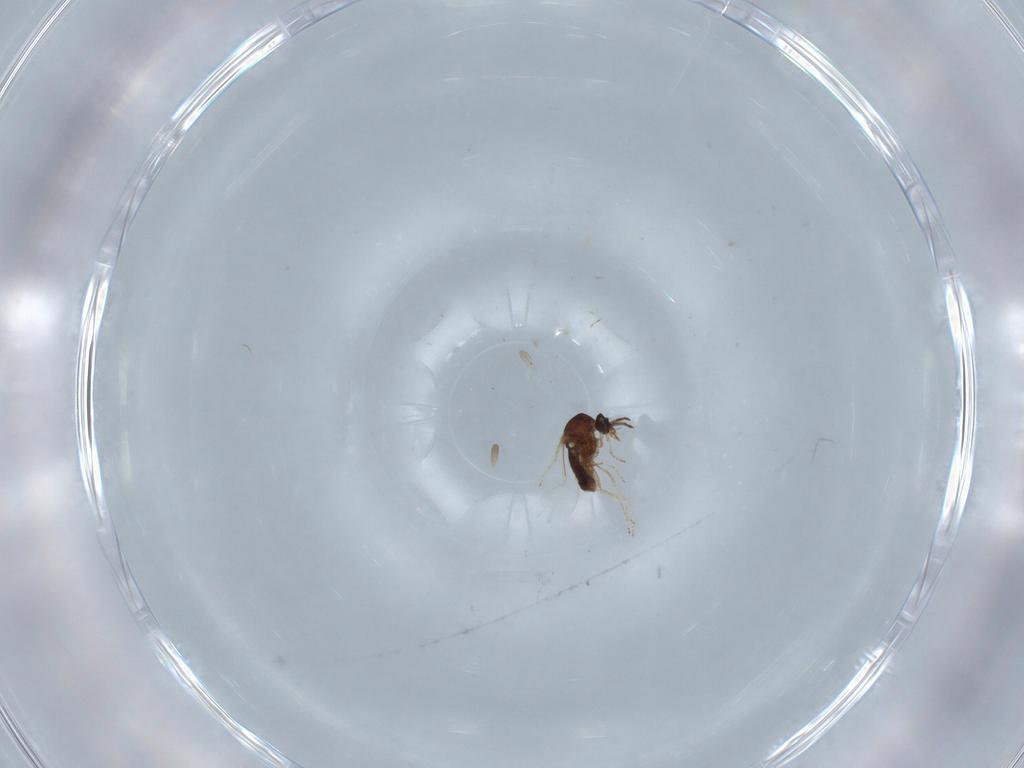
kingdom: Animalia
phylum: Arthropoda
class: Insecta
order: Diptera
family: Ceratopogonidae
